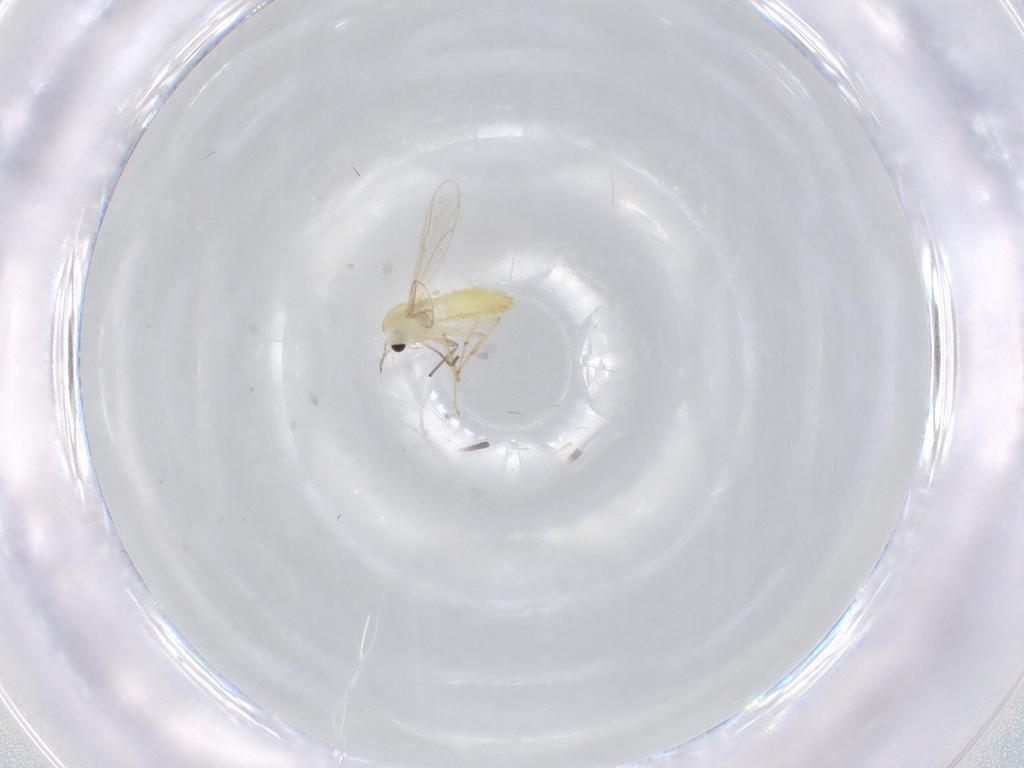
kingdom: Animalia
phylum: Arthropoda
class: Insecta
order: Diptera
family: Chironomidae
